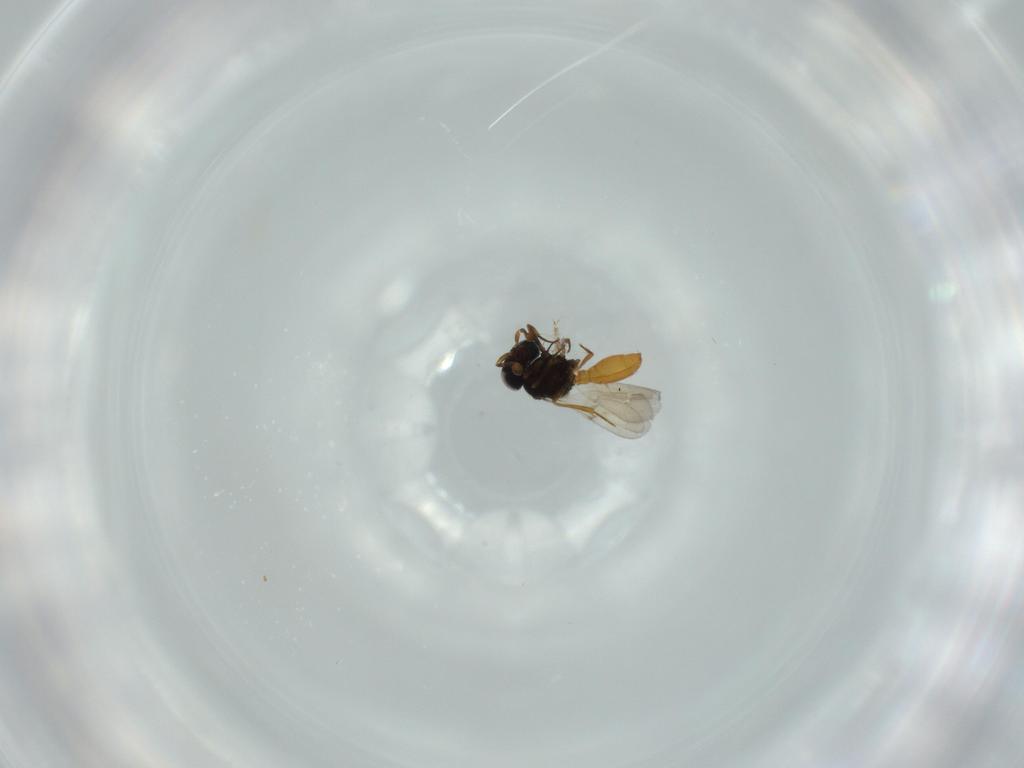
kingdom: Animalia
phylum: Arthropoda
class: Insecta
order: Hymenoptera
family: Scelionidae
